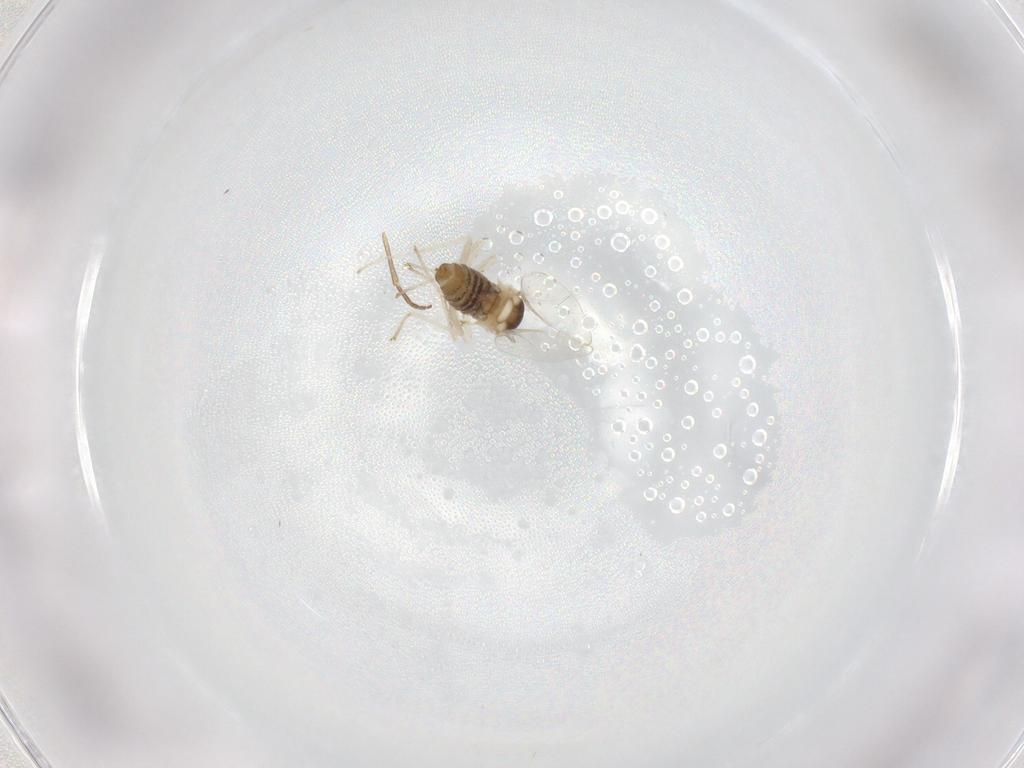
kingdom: Animalia
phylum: Arthropoda
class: Insecta
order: Diptera
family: Cecidomyiidae
